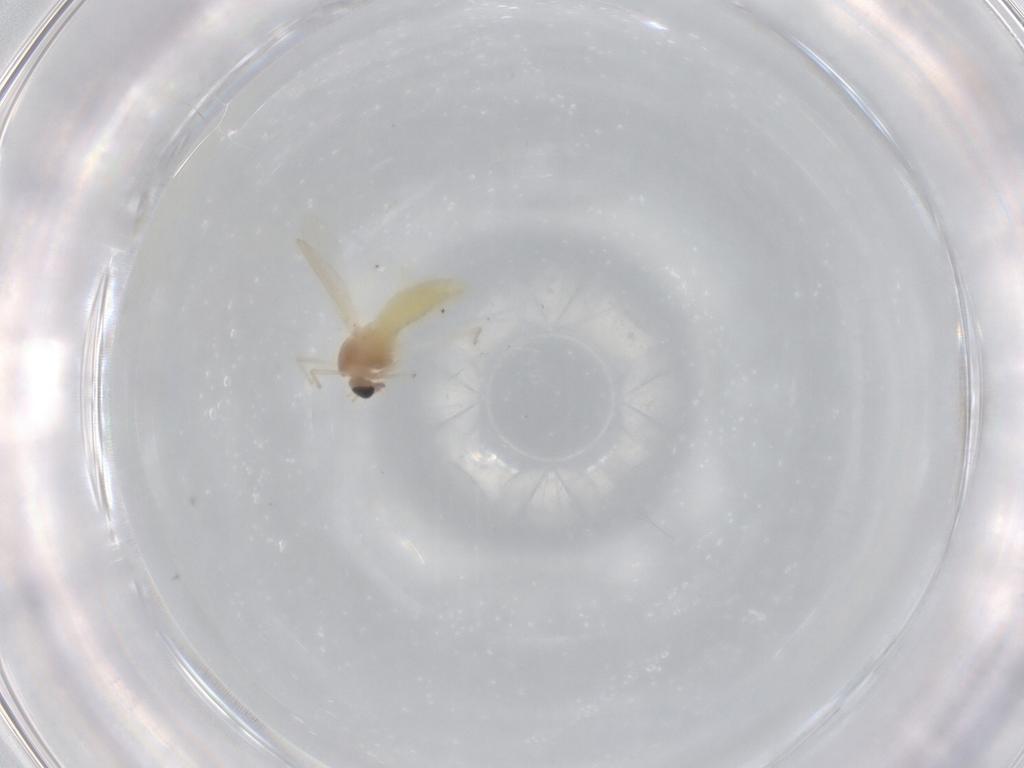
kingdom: Animalia
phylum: Arthropoda
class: Insecta
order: Diptera
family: Chironomidae
